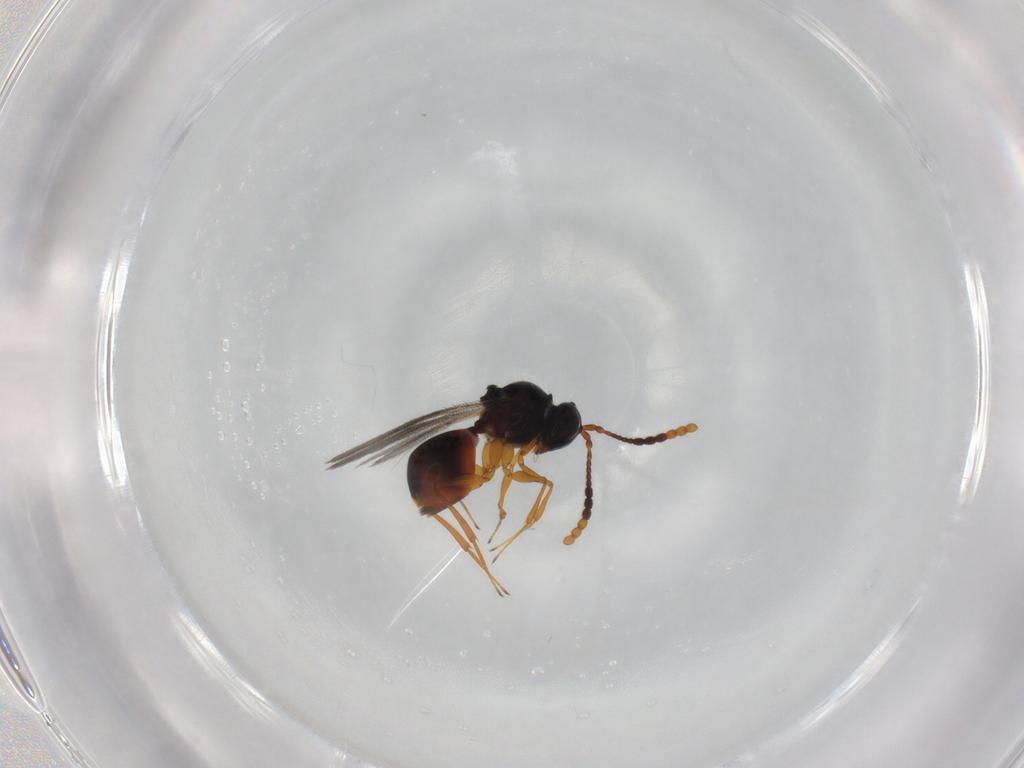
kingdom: Animalia
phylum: Arthropoda
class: Insecta
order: Hymenoptera
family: Figitidae
